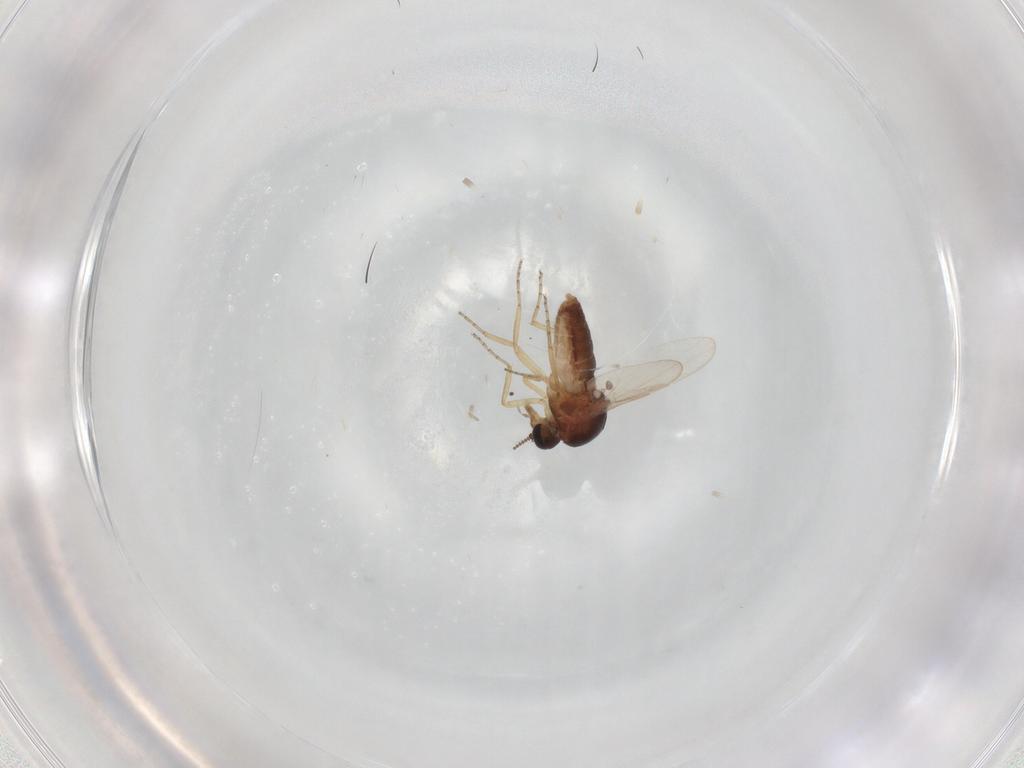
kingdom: Animalia
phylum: Arthropoda
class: Insecta
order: Diptera
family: Ceratopogonidae
